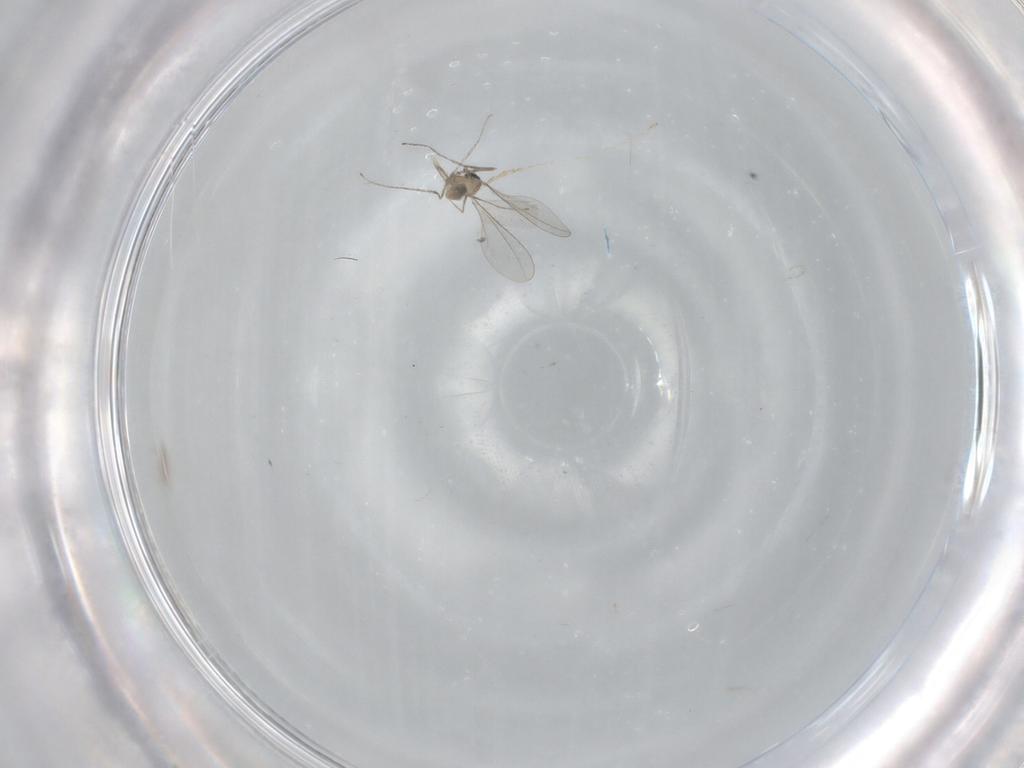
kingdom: Animalia
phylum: Arthropoda
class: Insecta
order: Diptera
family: Cecidomyiidae
